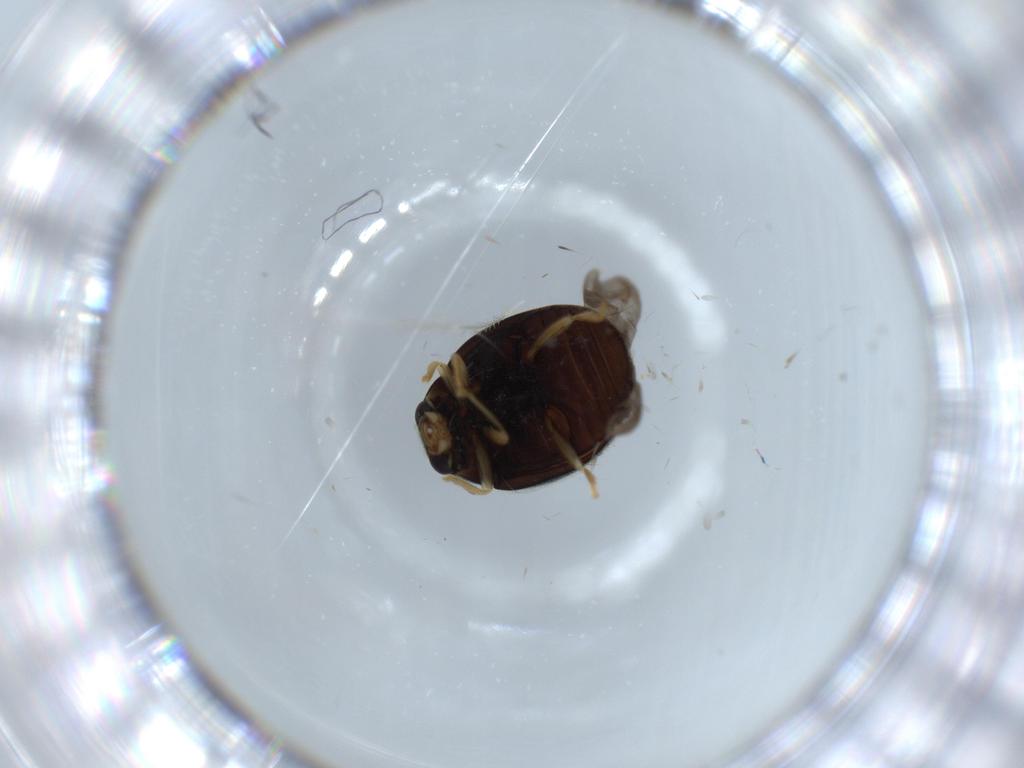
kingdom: Animalia
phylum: Arthropoda
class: Insecta
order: Coleoptera
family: Coccinellidae
